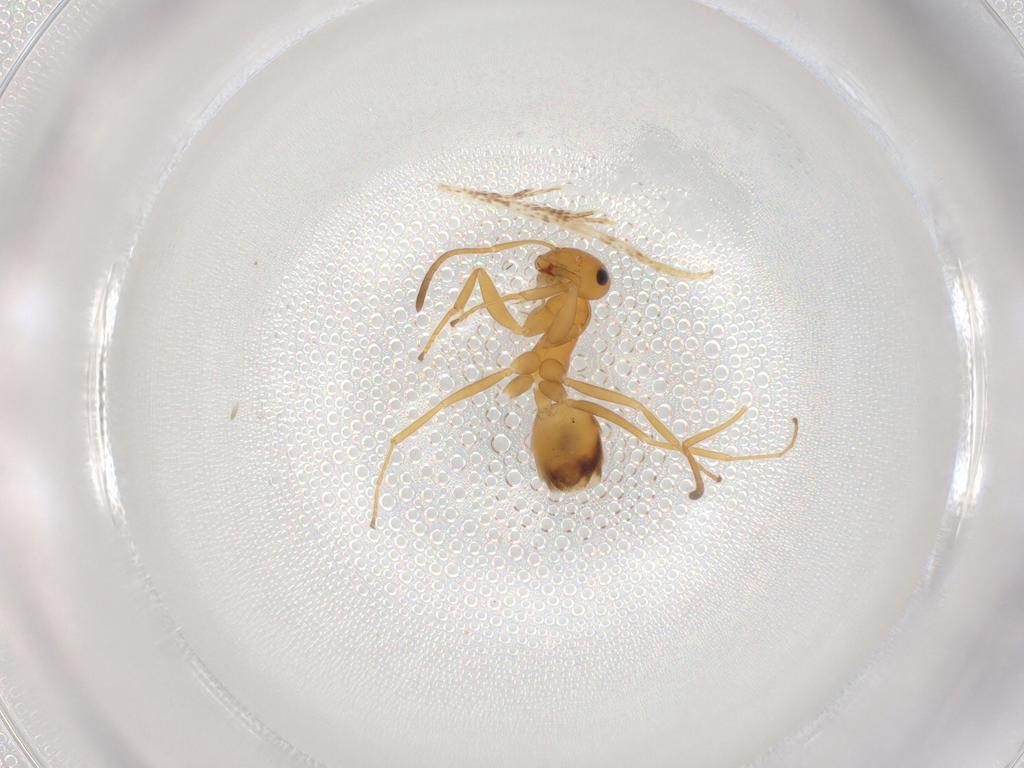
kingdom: Animalia
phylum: Arthropoda
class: Insecta
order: Hymenoptera
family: Formicidae
